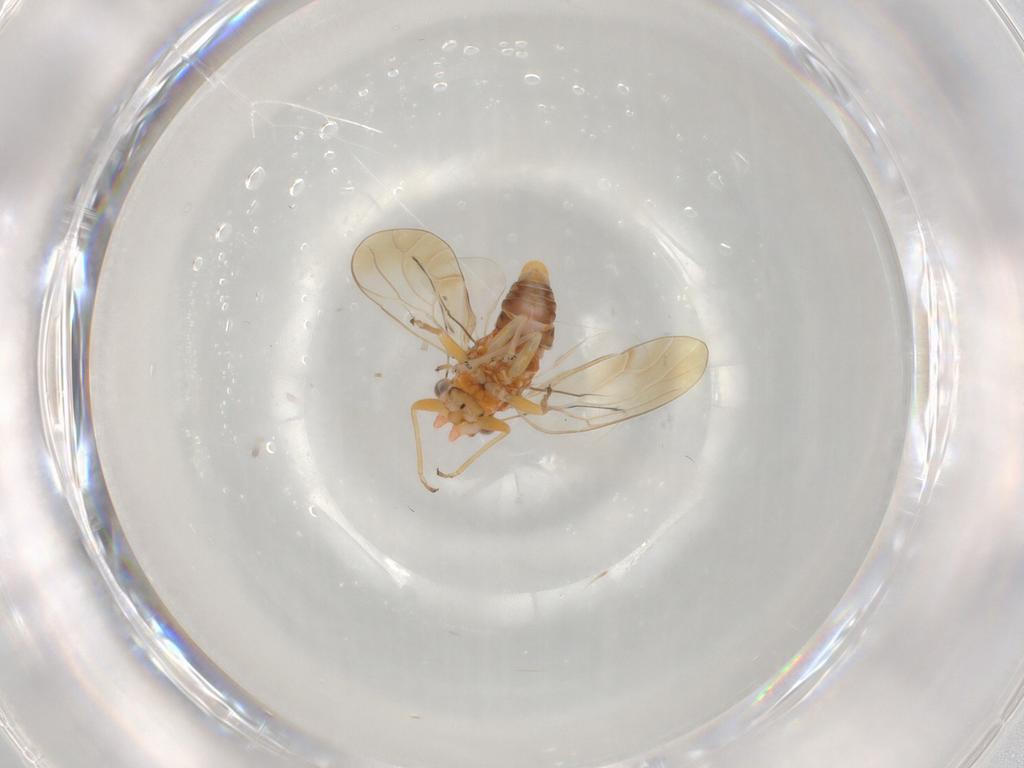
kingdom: Animalia
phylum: Arthropoda
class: Insecta
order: Hemiptera
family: Psyllidae
